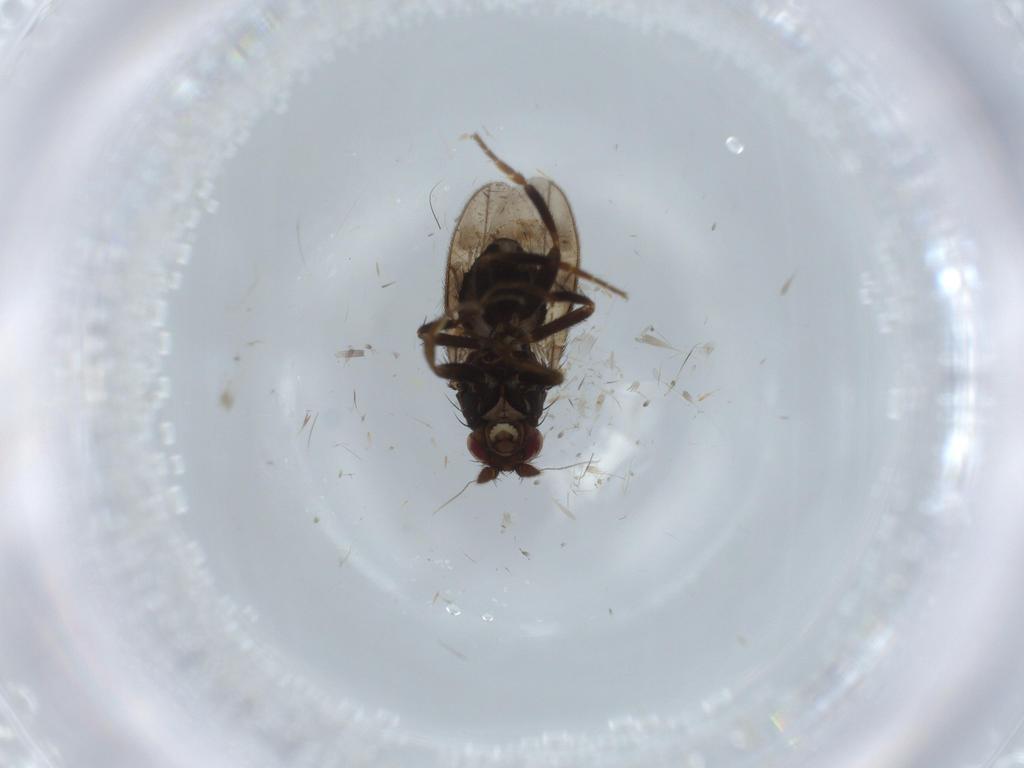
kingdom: Animalia
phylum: Arthropoda
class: Insecta
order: Diptera
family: Sphaeroceridae
